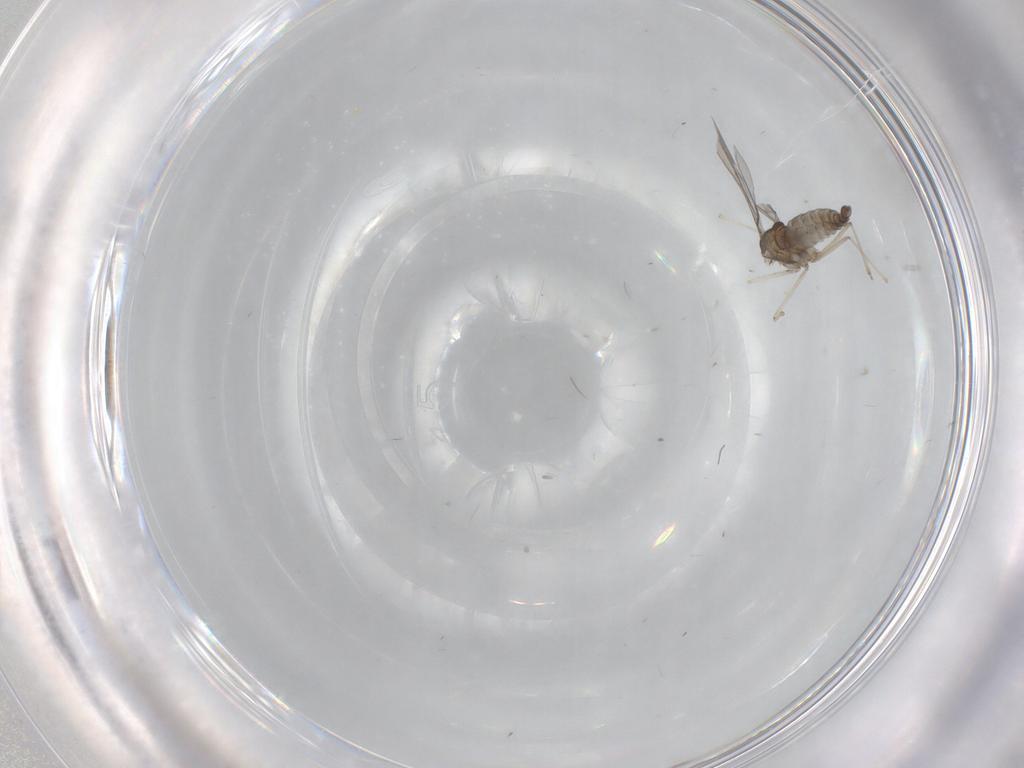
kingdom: Animalia
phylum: Arthropoda
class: Insecta
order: Diptera
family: Cecidomyiidae
